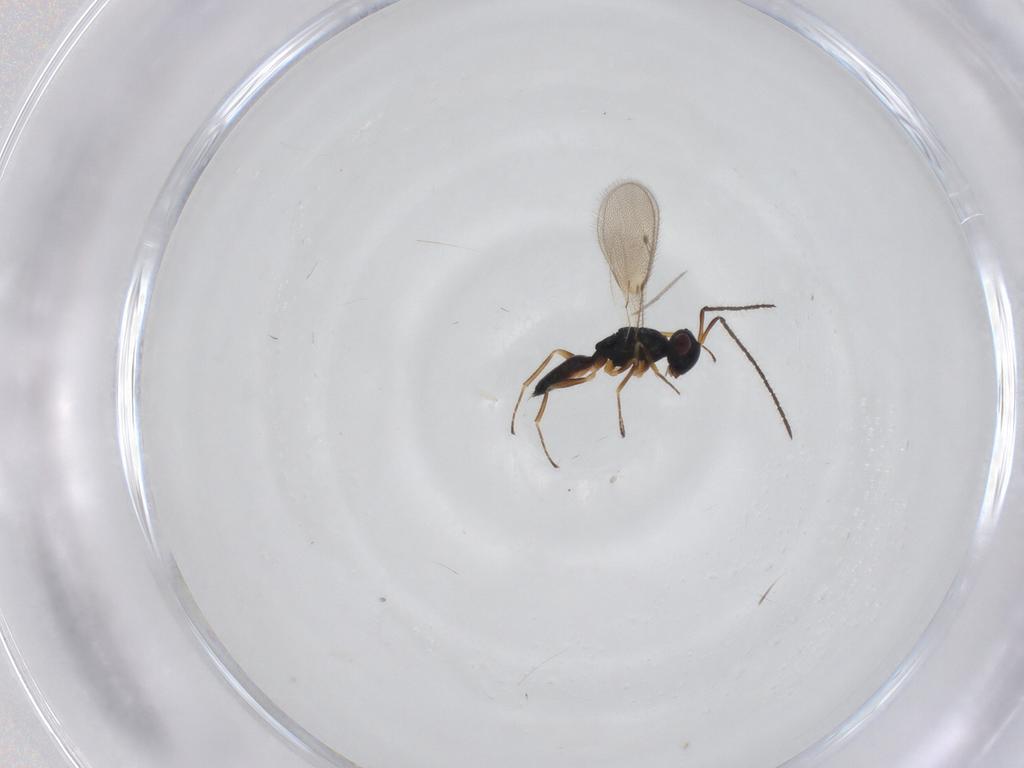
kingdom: Animalia
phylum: Arthropoda
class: Insecta
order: Hymenoptera
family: Pteromalidae
